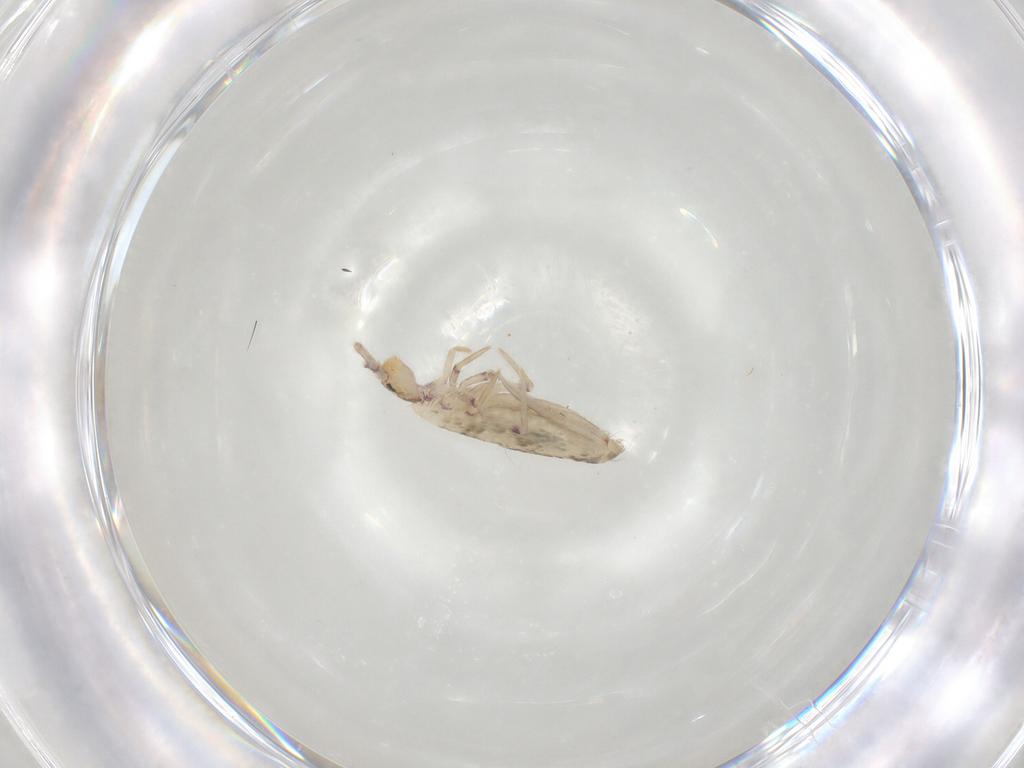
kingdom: Animalia
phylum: Arthropoda
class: Collembola
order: Entomobryomorpha
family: Entomobryidae
